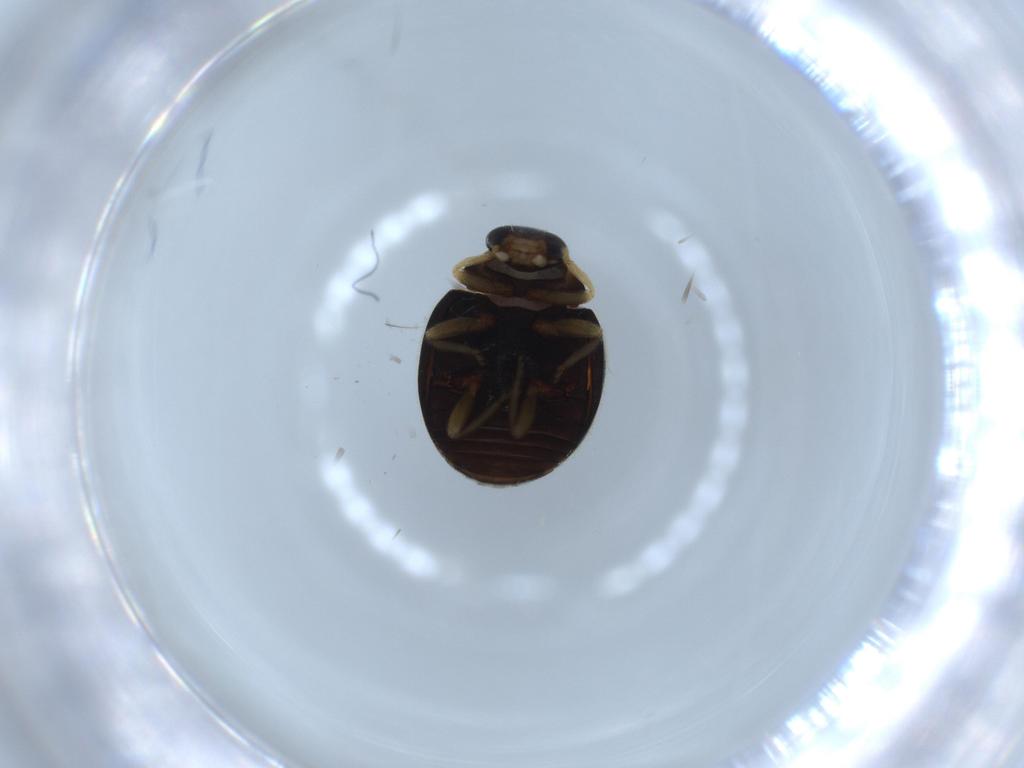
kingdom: Animalia
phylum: Arthropoda
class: Insecta
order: Coleoptera
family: Coccinellidae
